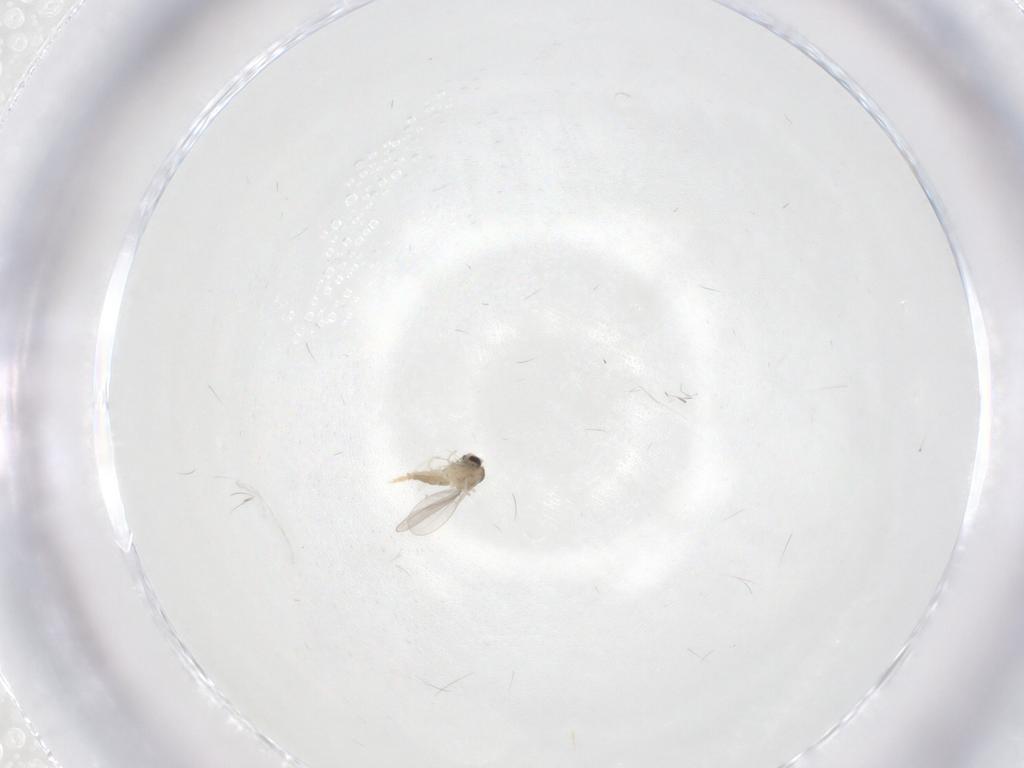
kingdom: Animalia
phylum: Arthropoda
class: Insecta
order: Diptera
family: Cecidomyiidae
